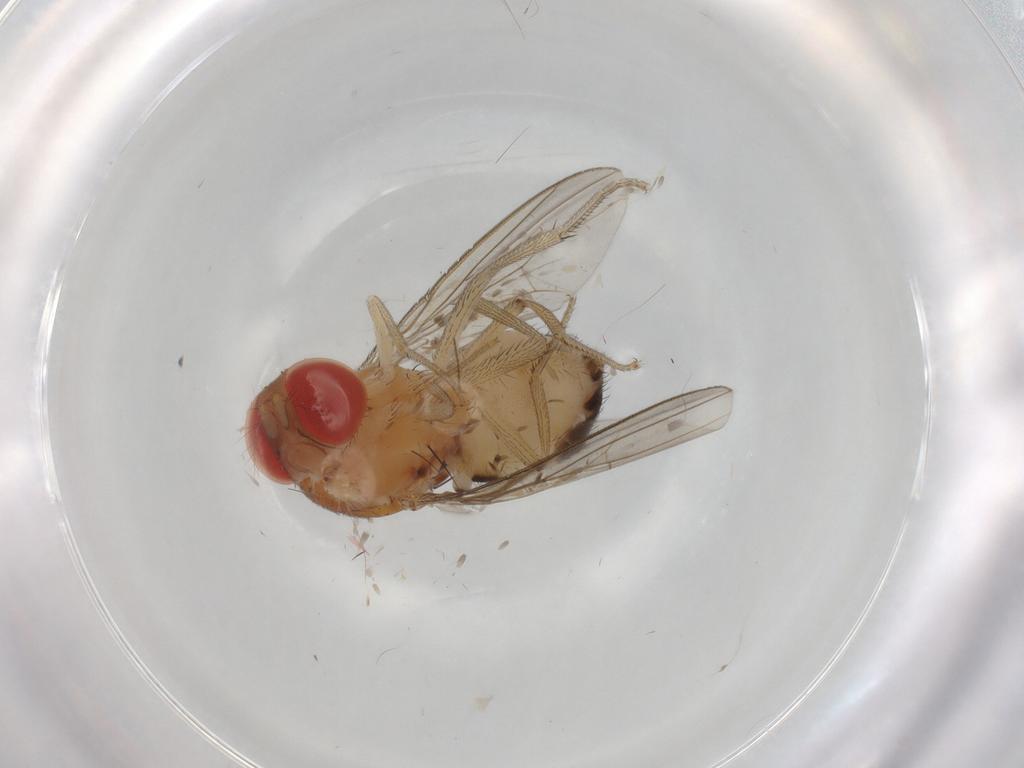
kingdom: Animalia
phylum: Arthropoda
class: Insecta
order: Diptera
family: Drosophilidae
